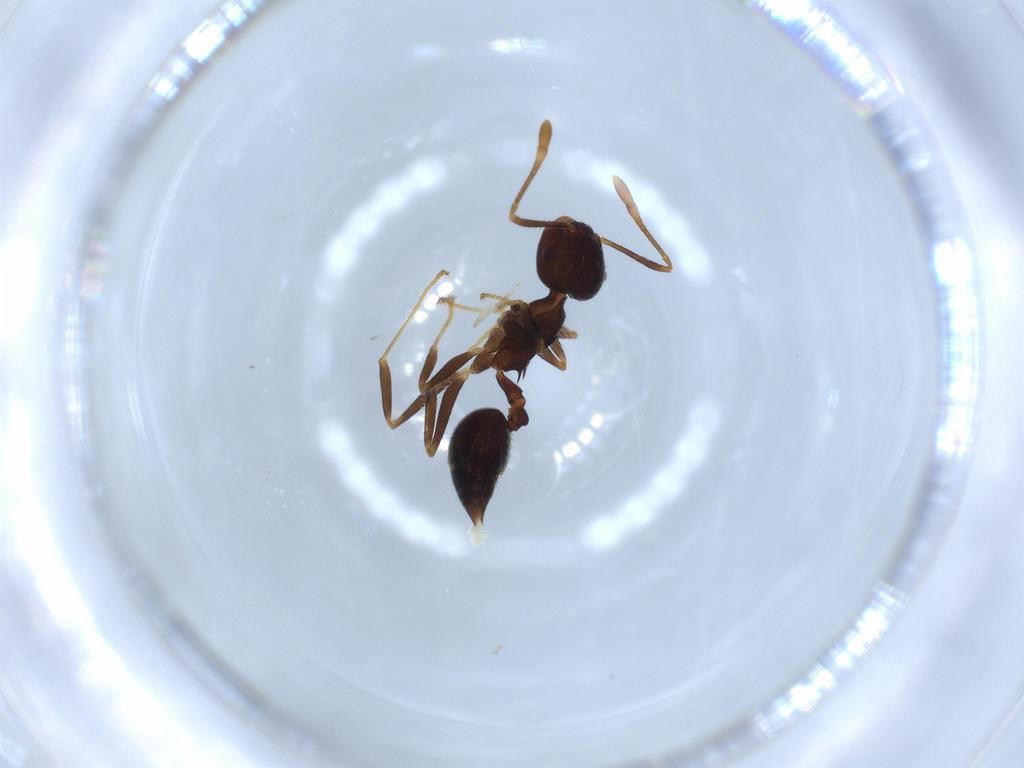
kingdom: Animalia
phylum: Arthropoda
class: Insecta
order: Hymenoptera
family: Formicidae
